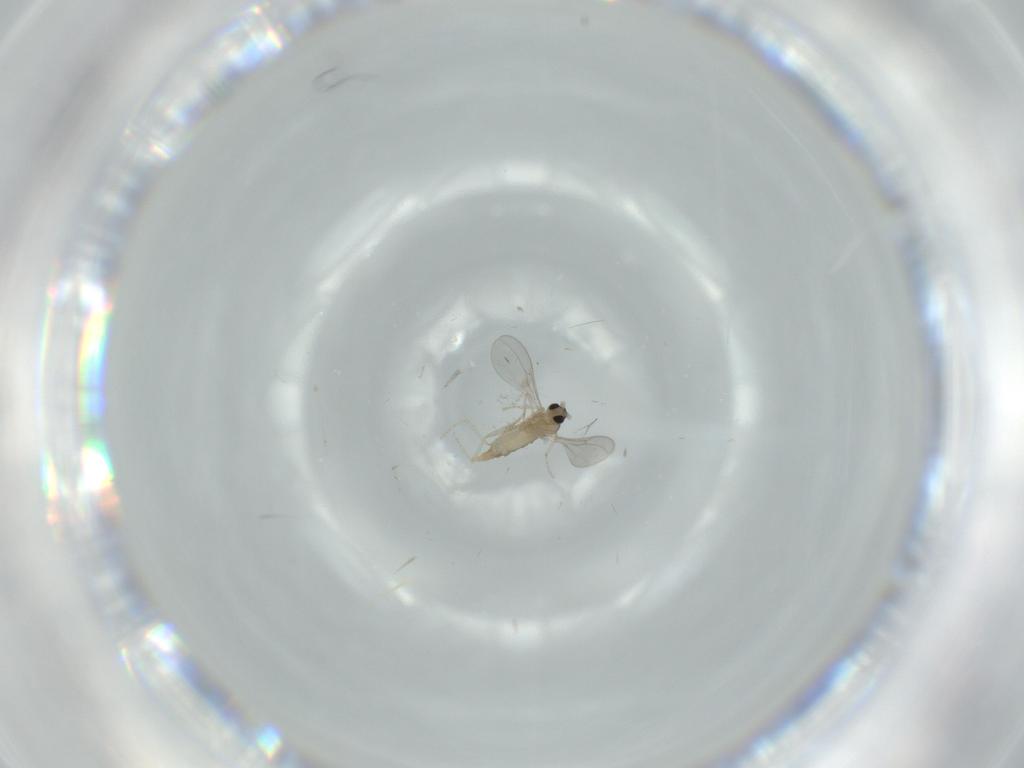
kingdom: Animalia
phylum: Arthropoda
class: Insecta
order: Diptera
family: Cecidomyiidae
